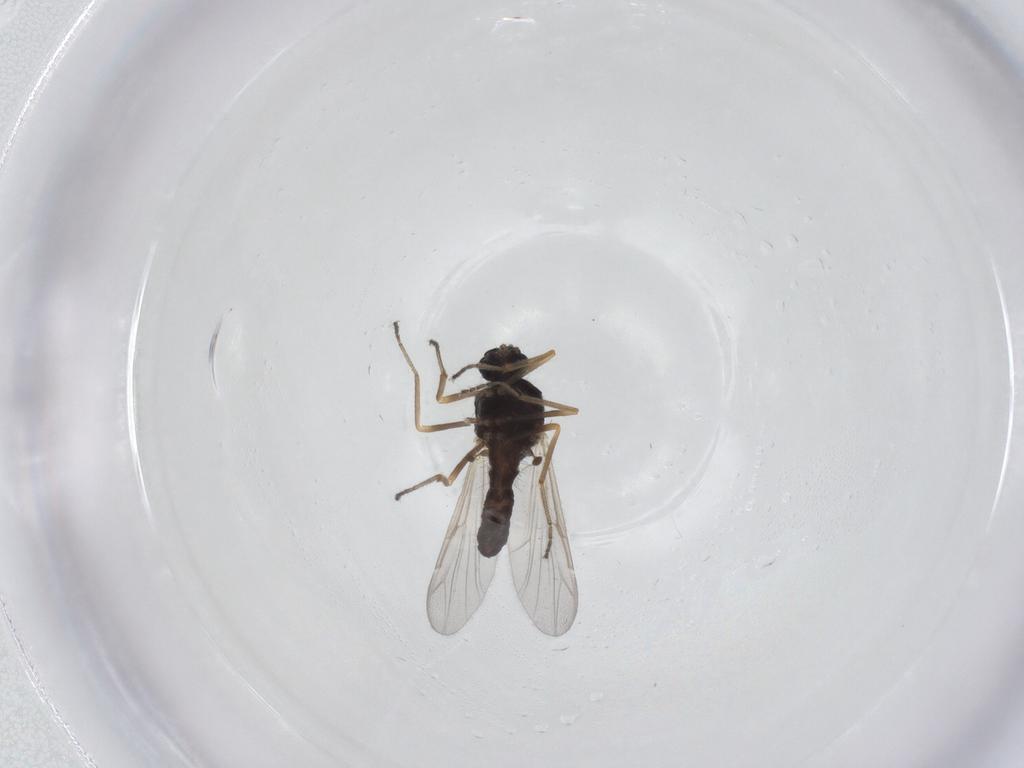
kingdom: Animalia
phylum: Arthropoda
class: Insecta
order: Diptera
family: Ceratopogonidae
